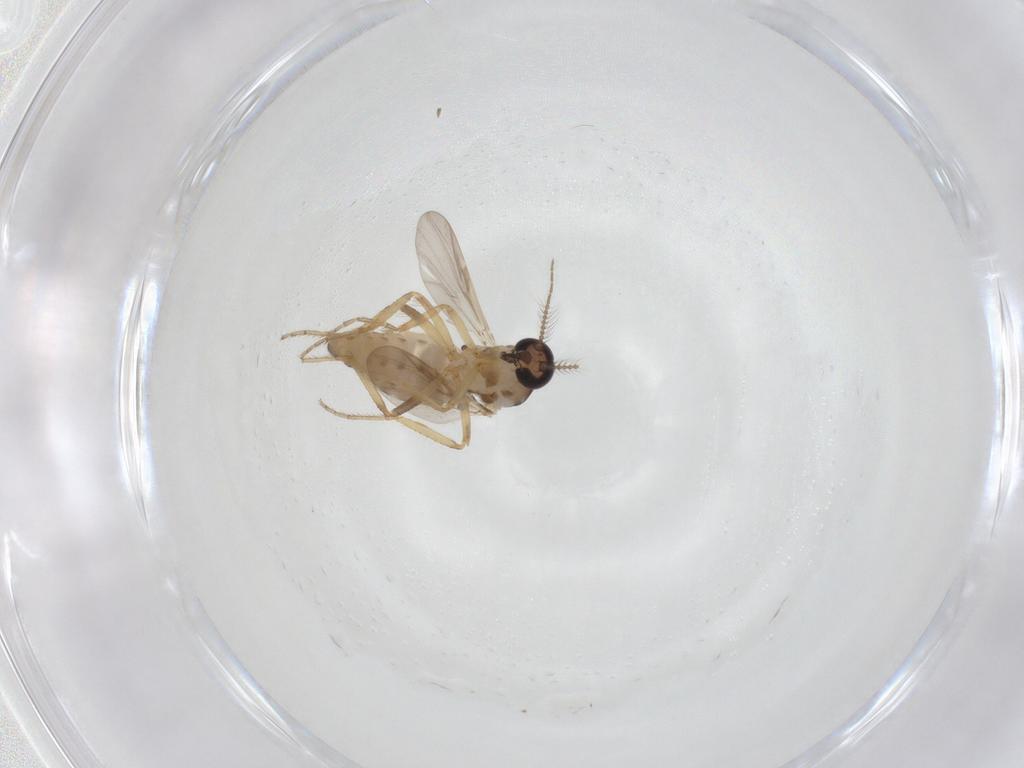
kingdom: Animalia
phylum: Arthropoda
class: Insecta
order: Diptera
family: Ceratopogonidae
